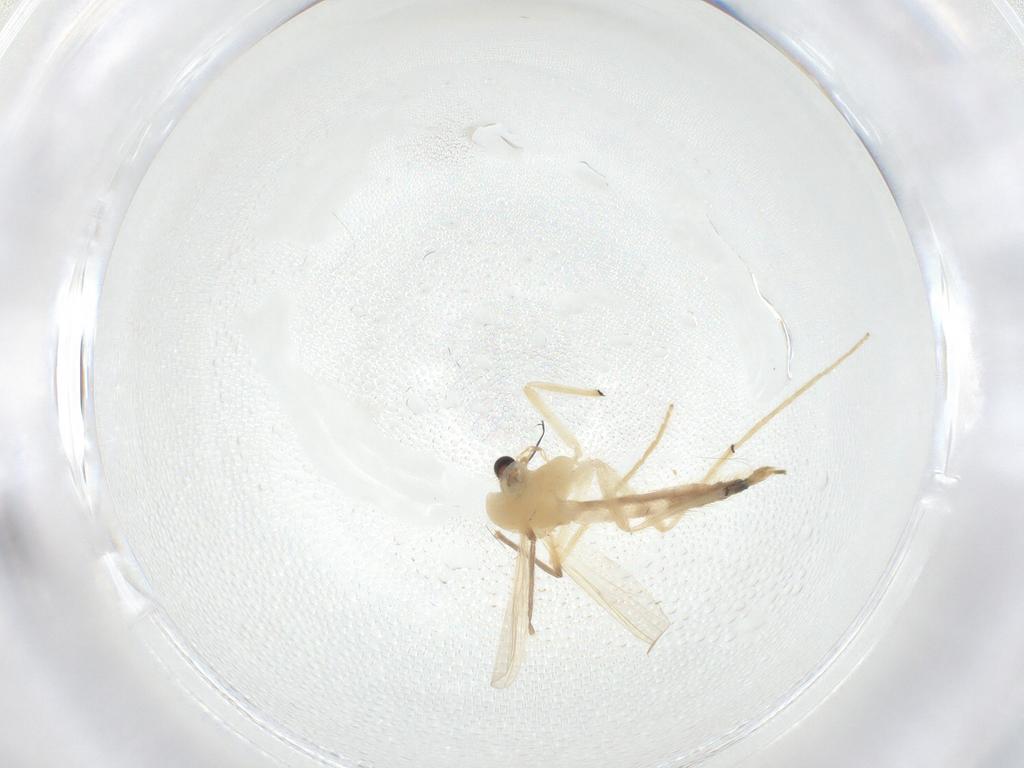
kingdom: Animalia
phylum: Arthropoda
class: Insecta
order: Diptera
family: Chironomidae
